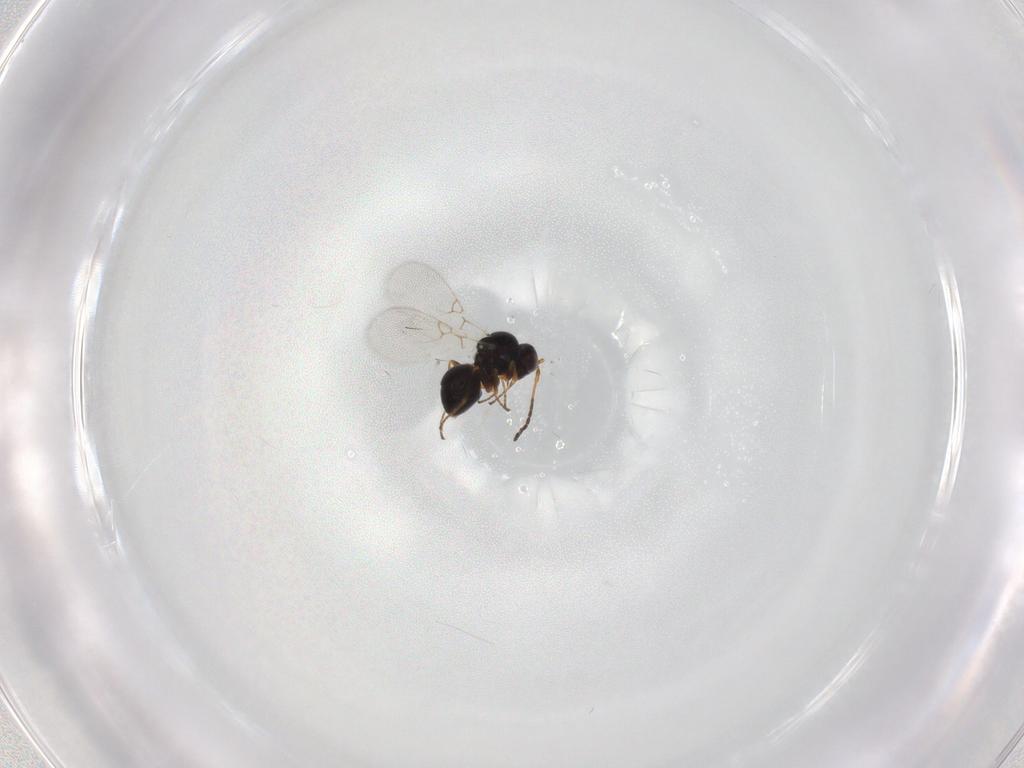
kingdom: Animalia
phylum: Arthropoda
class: Insecta
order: Hymenoptera
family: Figitidae
